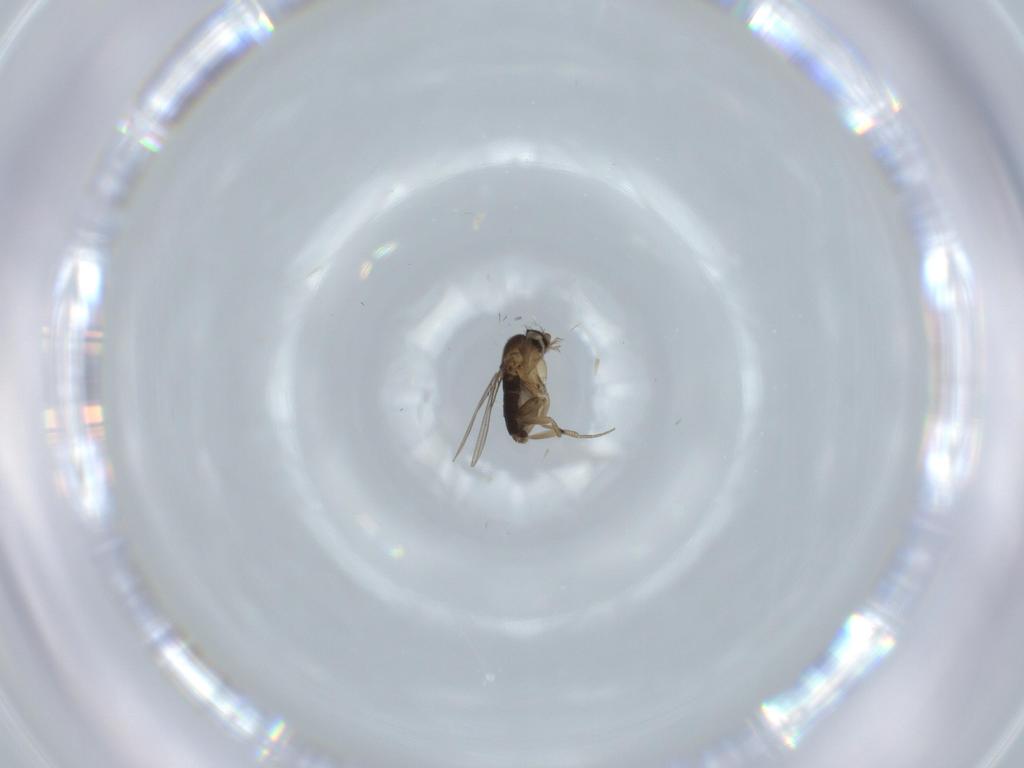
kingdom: Animalia
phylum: Arthropoda
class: Insecta
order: Diptera
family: Phoridae
